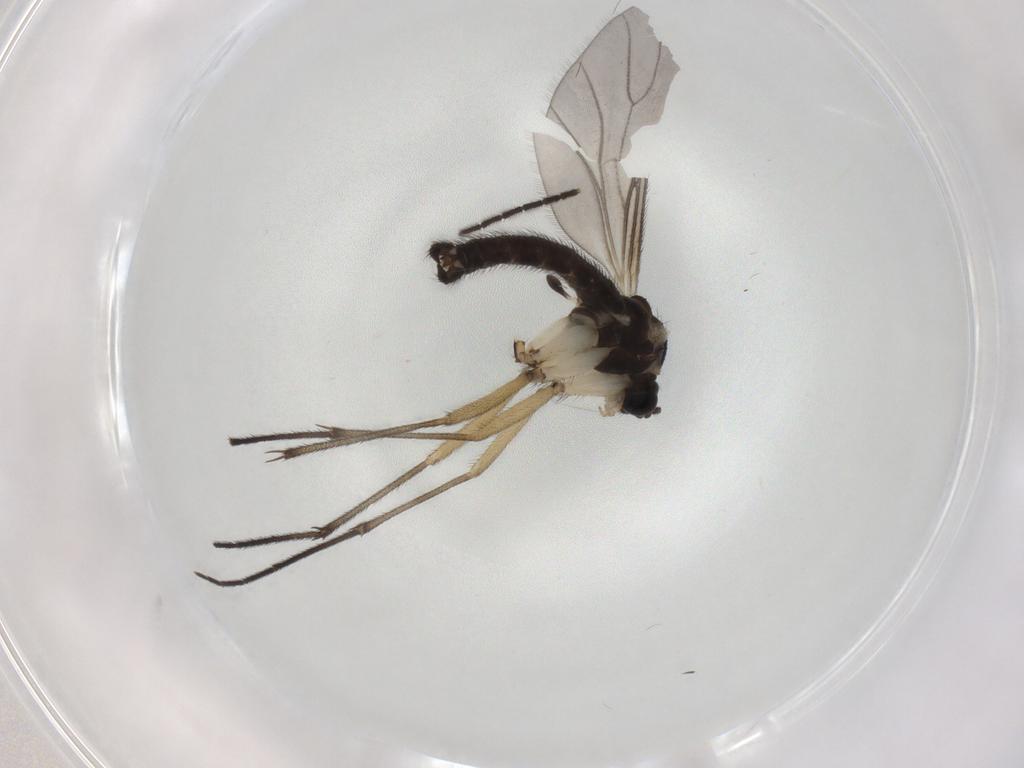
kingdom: Animalia
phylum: Arthropoda
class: Insecta
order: Diptera
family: Sciaridae
